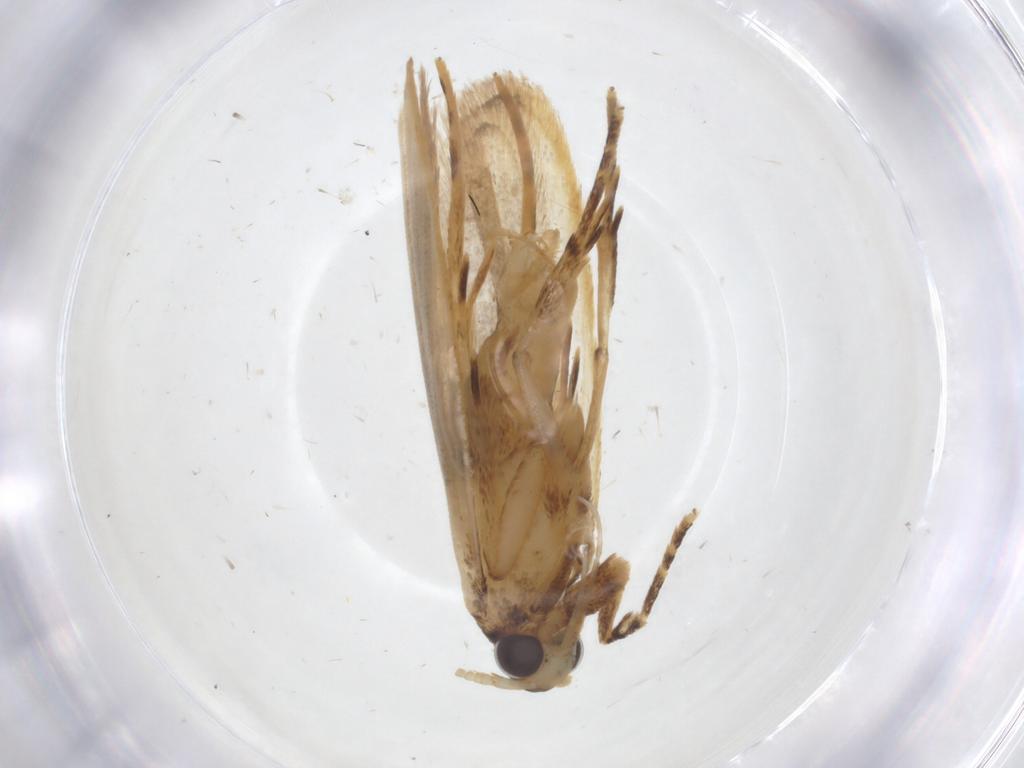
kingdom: Animalia
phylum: Arthropoda
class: Insecta
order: Lepidoptera
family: Lecithoceridae
